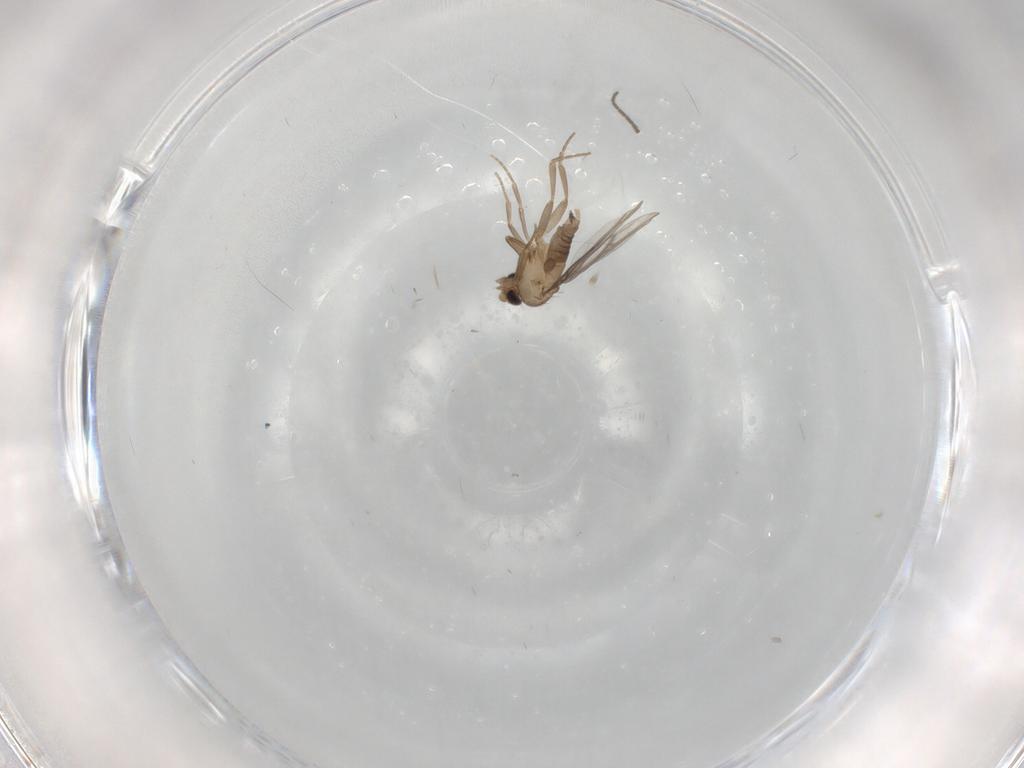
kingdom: Animalia
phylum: Arthropoda
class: Insecta
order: Diptera
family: Sciaridae
